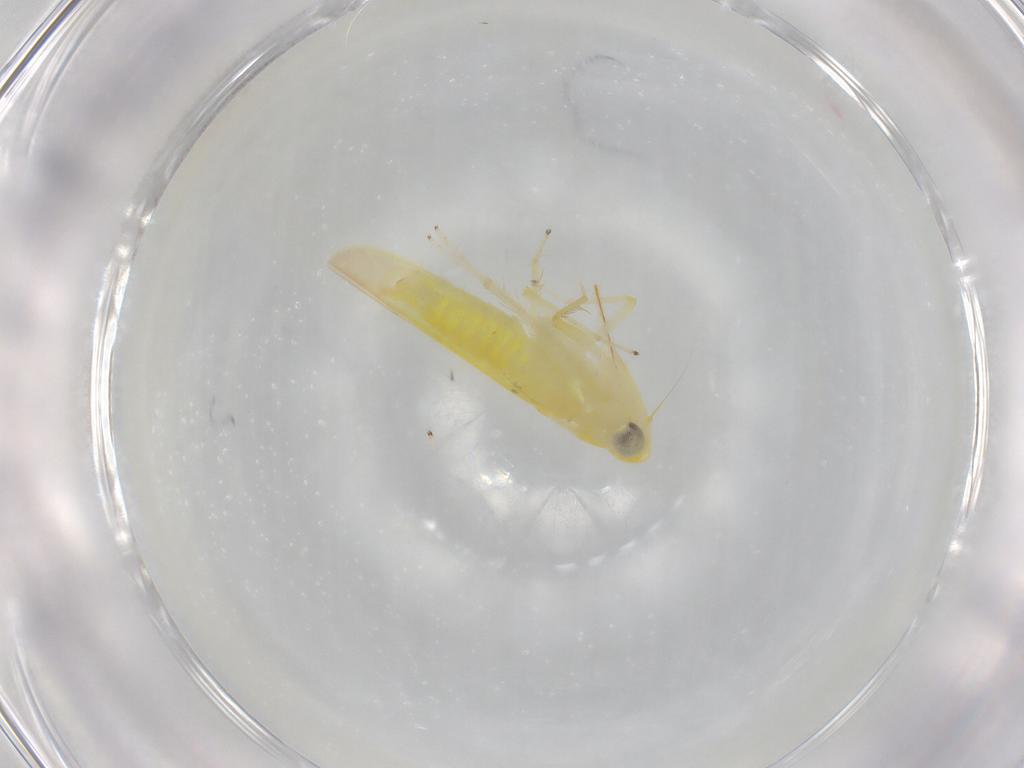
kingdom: Animalia
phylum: Arthropoda
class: Insecta
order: Hemiptera
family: Cicadellidae
